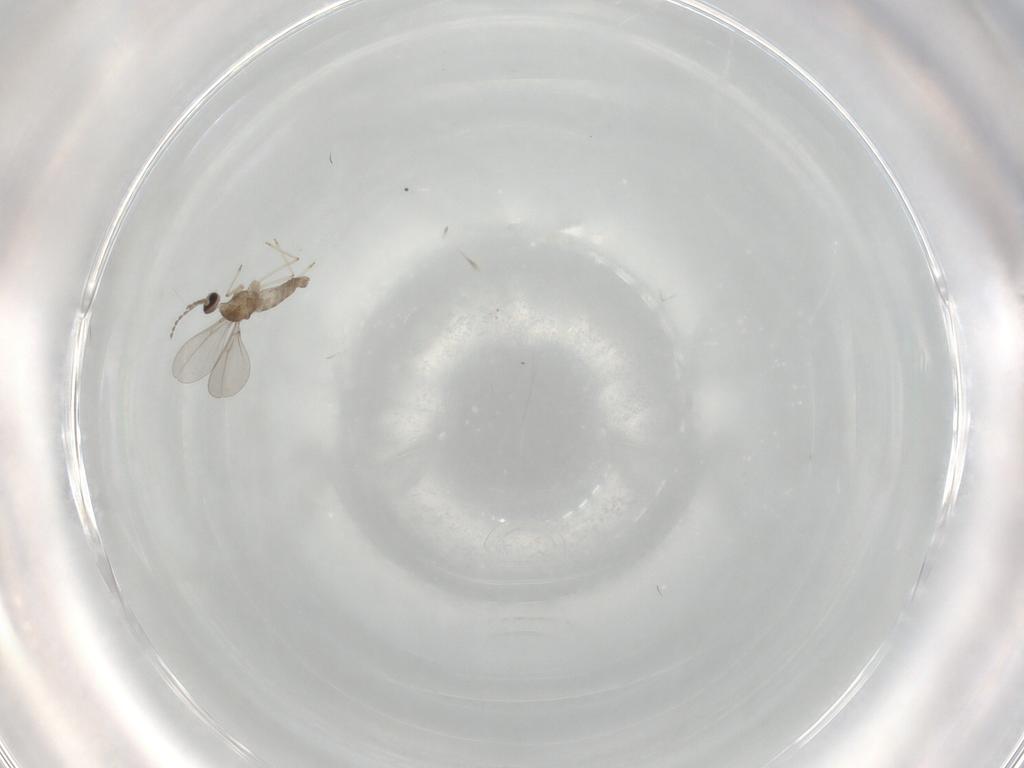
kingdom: Animalia
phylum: Arthropoda
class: Insecta
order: Diptera
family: Cecidomyiidae
